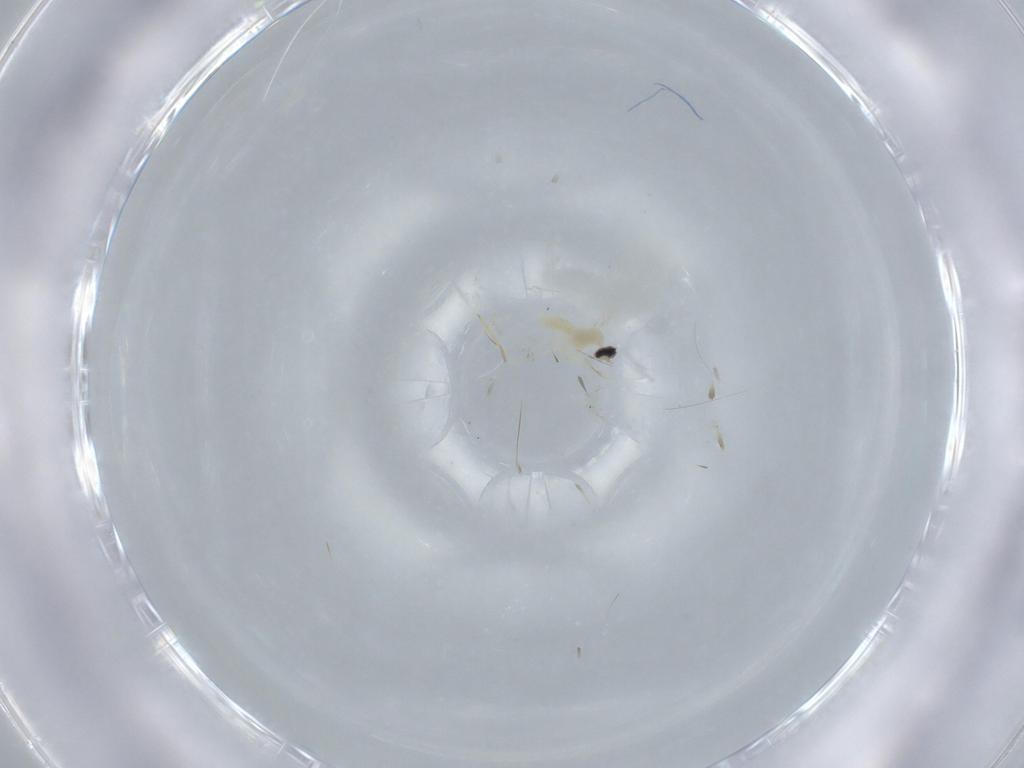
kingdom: Animalia
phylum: Arthropoda
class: Insecta
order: Diptera
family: Cecidomyiidae
